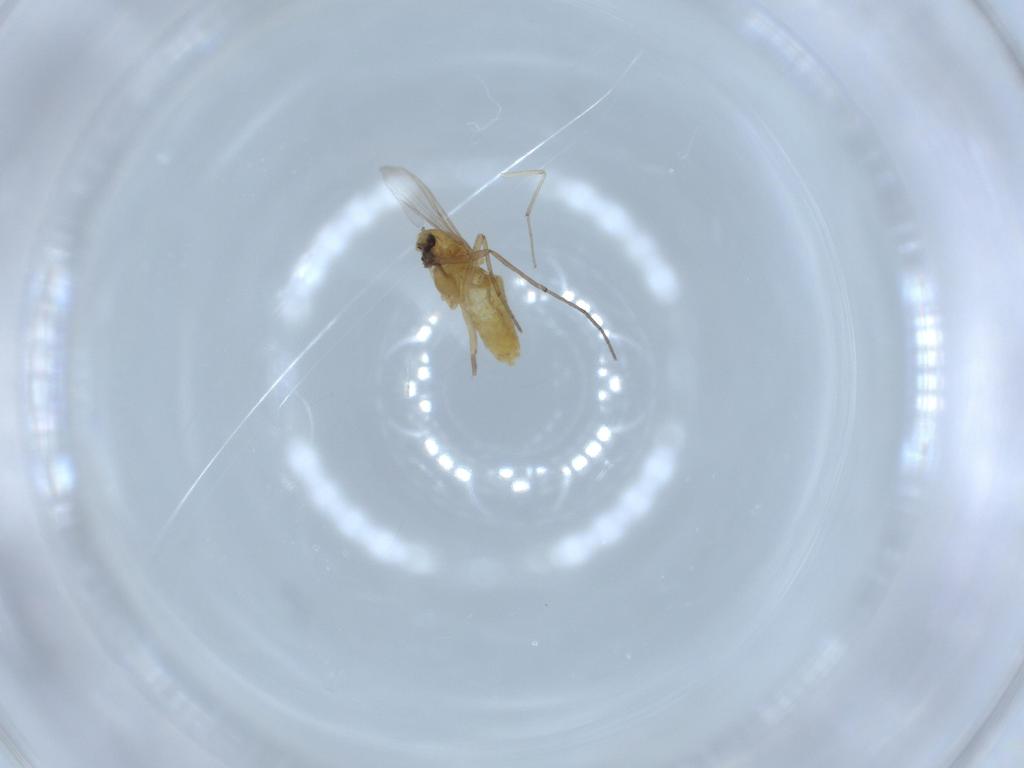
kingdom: Animalia
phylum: Arthropoda
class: Insecta
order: Diptera
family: Chironomidae
